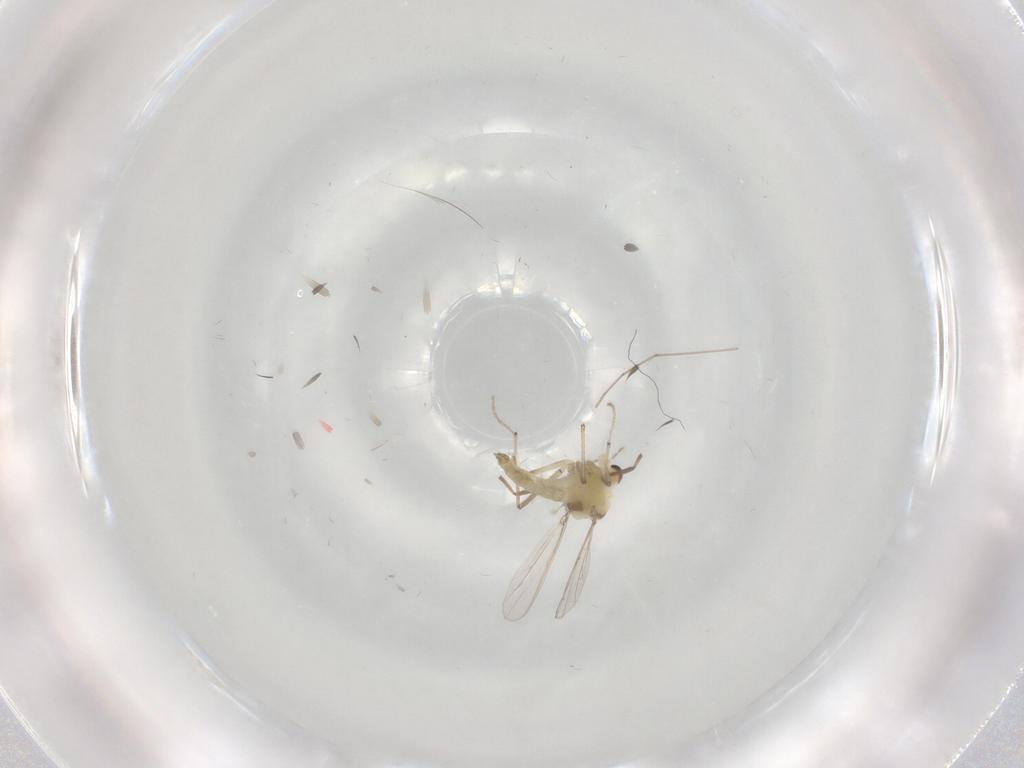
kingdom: Animalia
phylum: Arthropoda
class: Insecta
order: Diptera
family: Chironomidae
